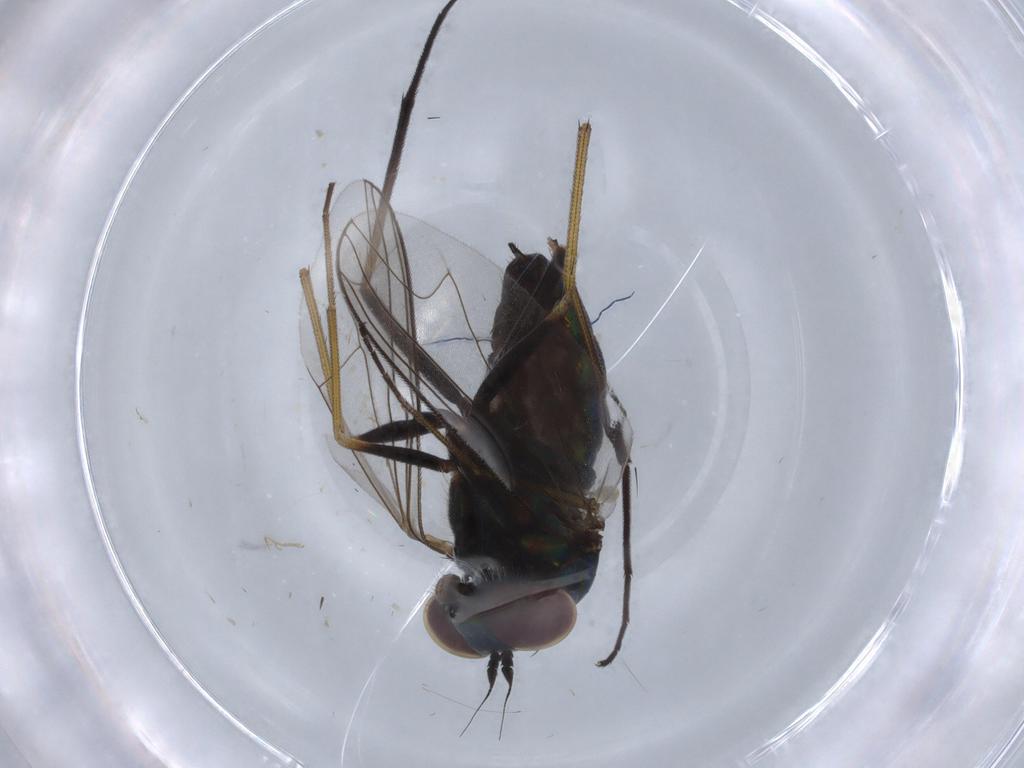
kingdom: Animalia
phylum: Arthropoda
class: Insecta
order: Diptera
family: Dolichopodidae
